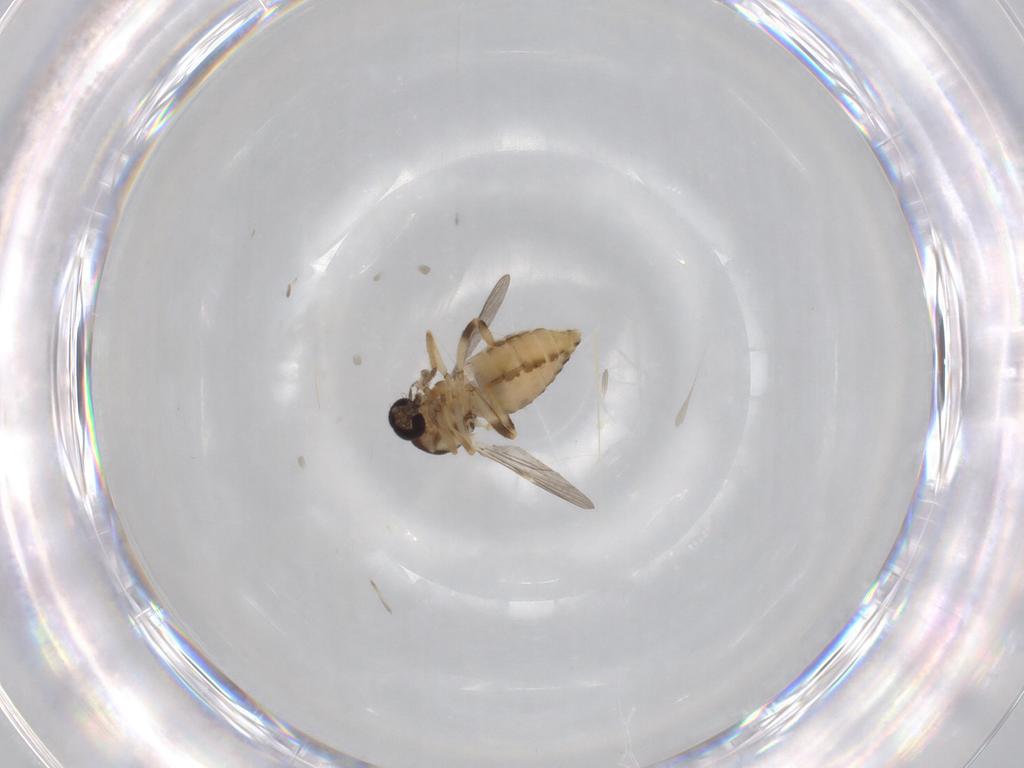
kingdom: Animalia
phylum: Arthropoda
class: Insecta
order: Diptera
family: Ceratopogonidae
